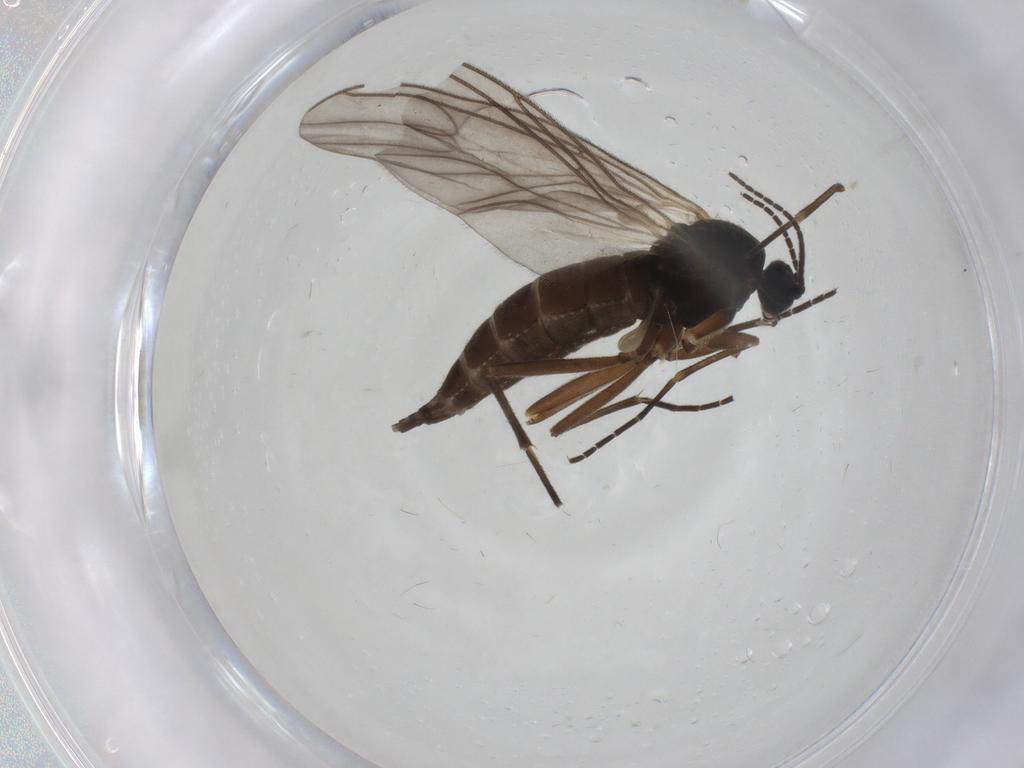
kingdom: Animalia
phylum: Arthropoda
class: Insecta
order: Diptera
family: Sciaridae
